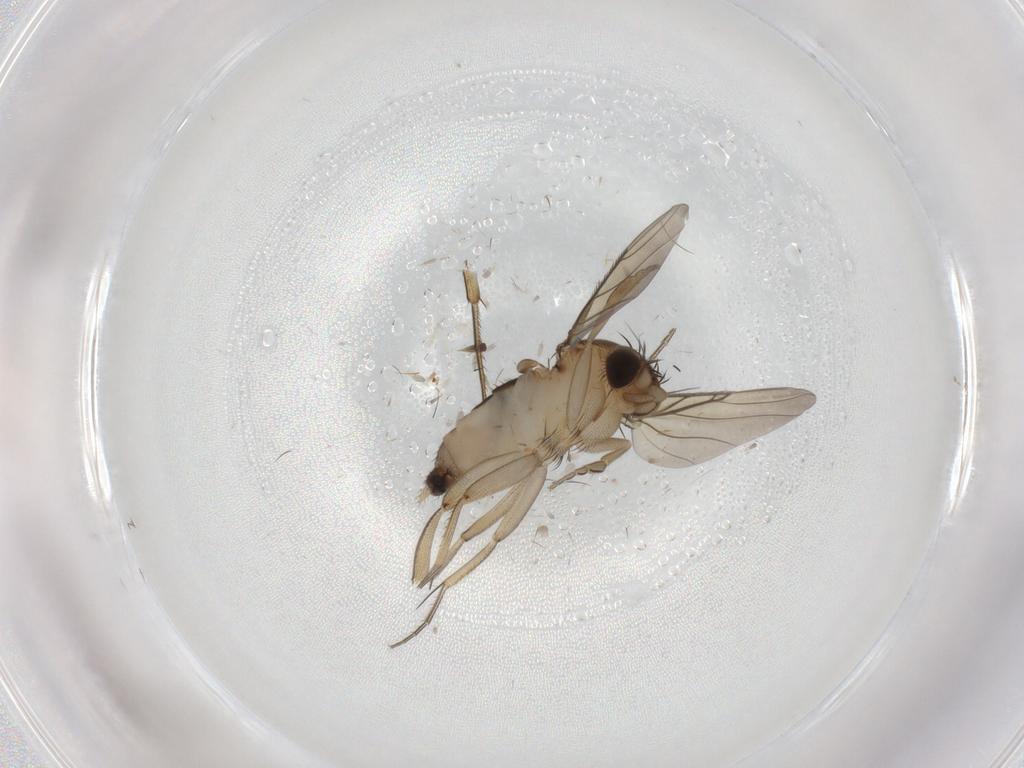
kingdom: Animalia
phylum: Arthropoda
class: Insecta
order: Diptera
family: Phoridae
